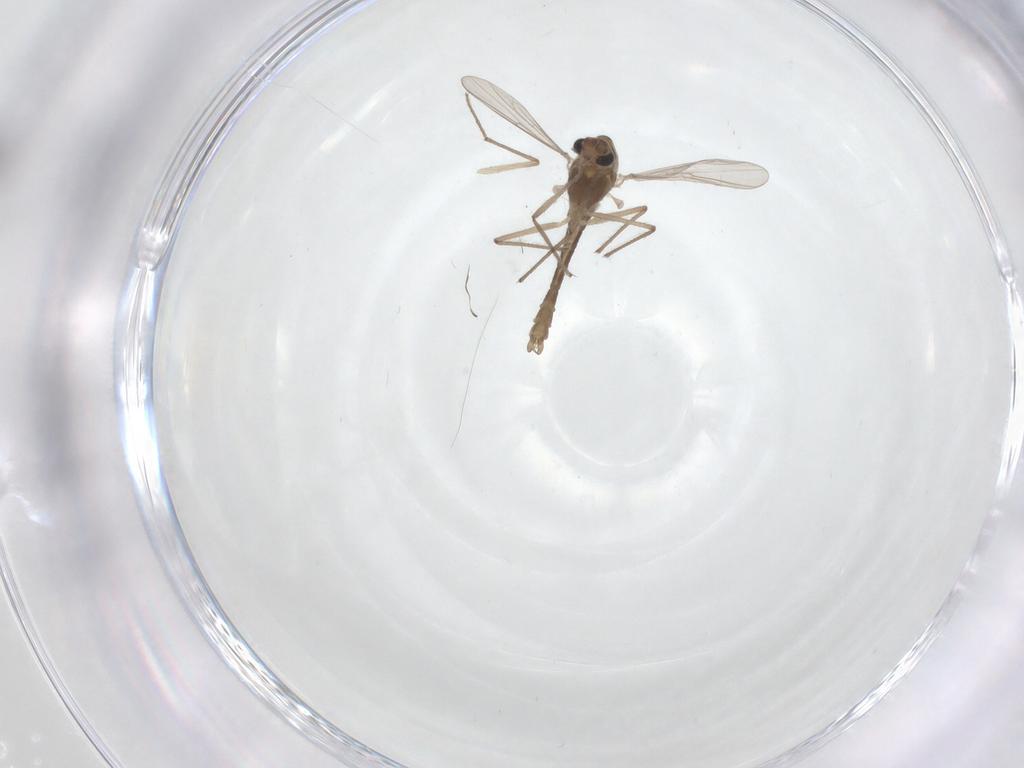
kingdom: Animalia
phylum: Arthropoda
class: Insecta
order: Diptera
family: Chironomidae
